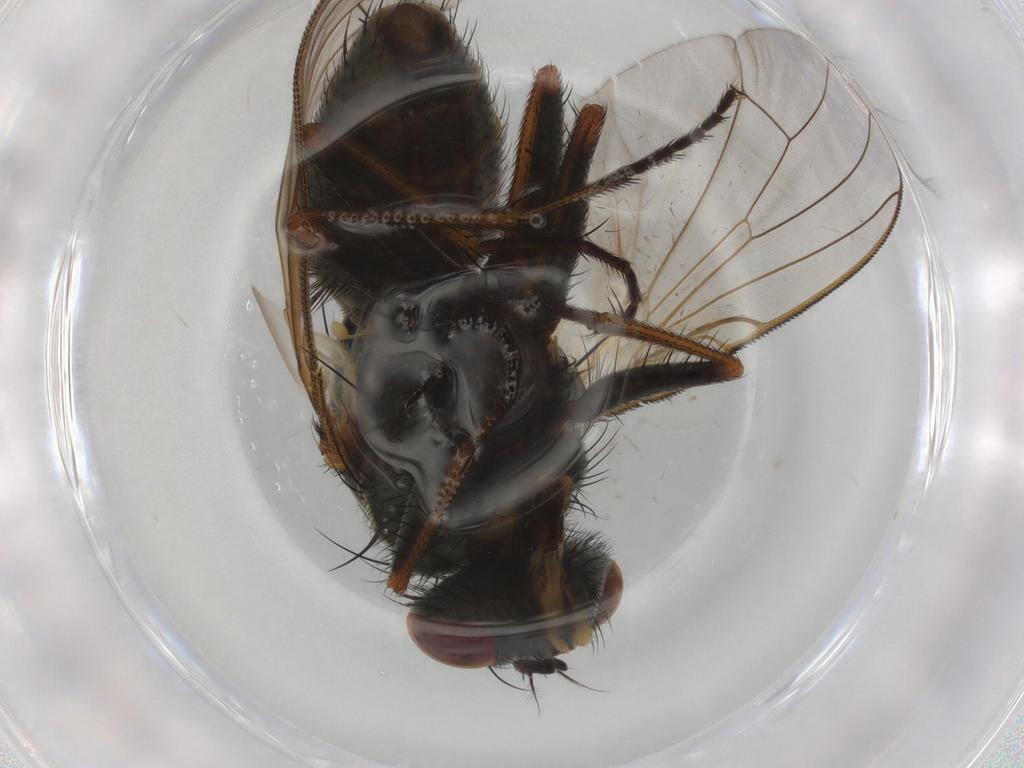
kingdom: Animalia
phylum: Arthropoda
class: Insecta
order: Diptera
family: Muscidae
